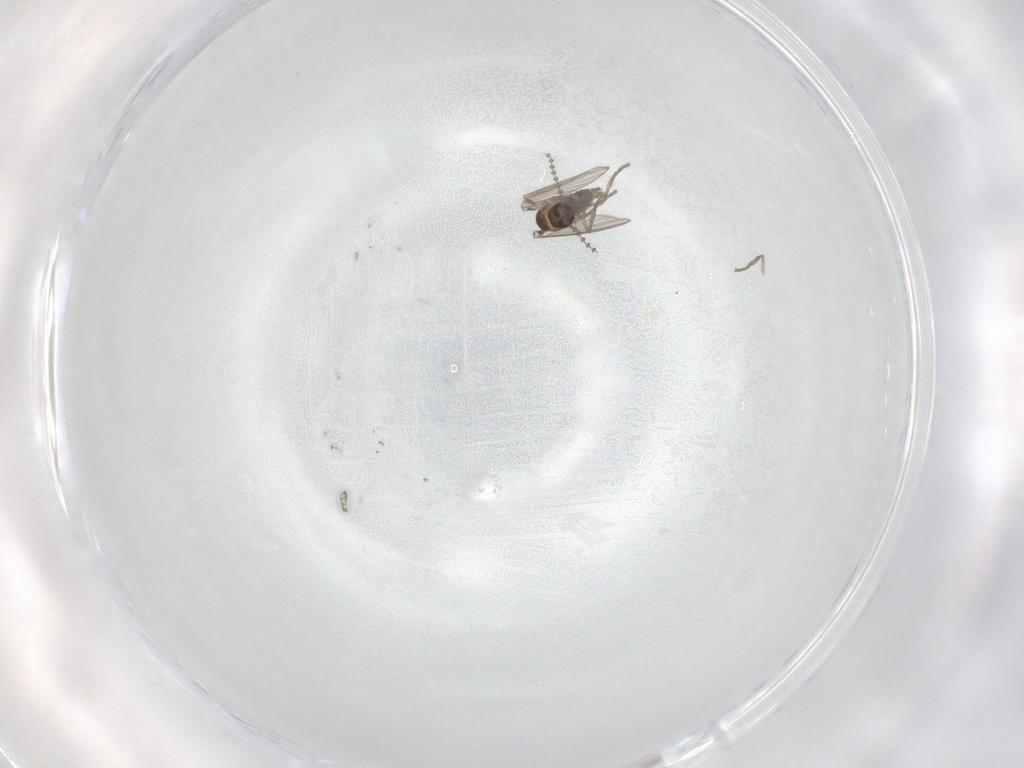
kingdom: Animalia
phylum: Arthropoda
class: Insecta
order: Diptera
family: Psychodidae
